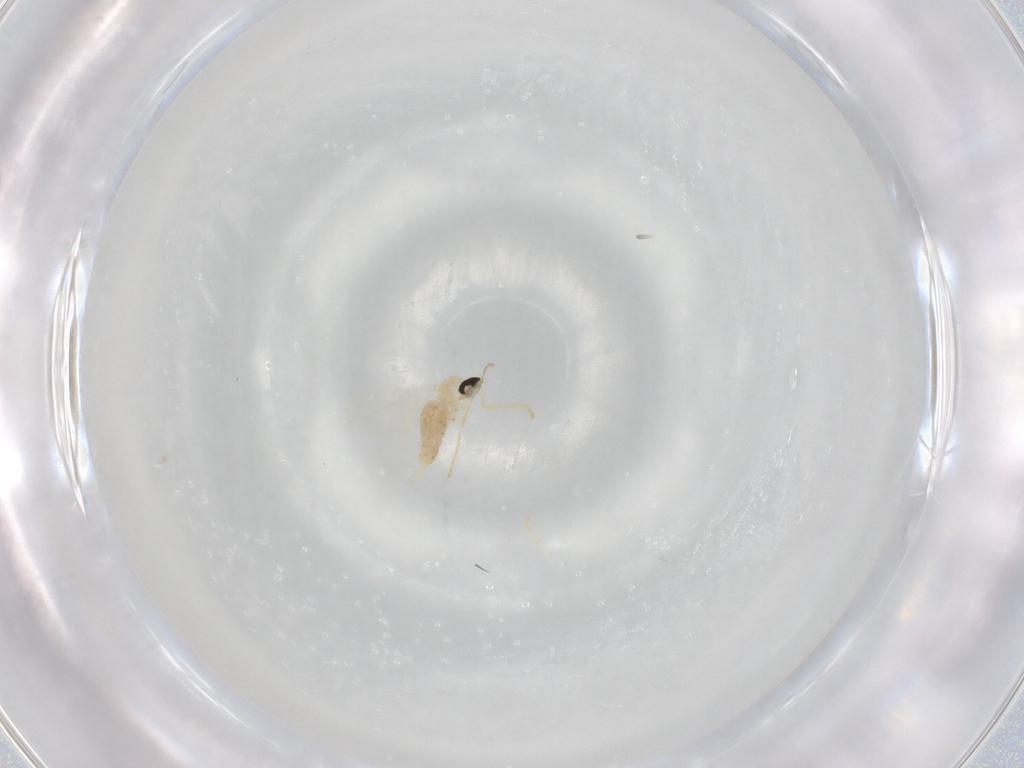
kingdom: Animalia
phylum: Arthropoda
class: Insecta
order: Diptera
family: Cecidomyiidae
